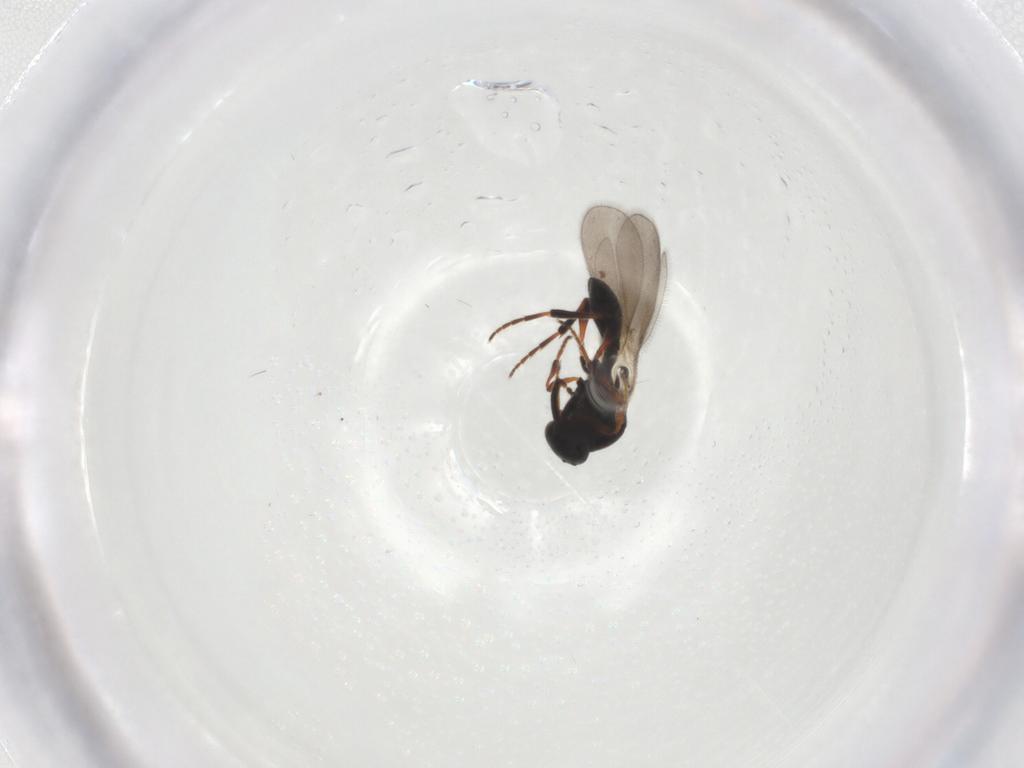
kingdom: Animalia
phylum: Arthropoda
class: Insecta
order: Hymenoptera
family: Platygastridae
